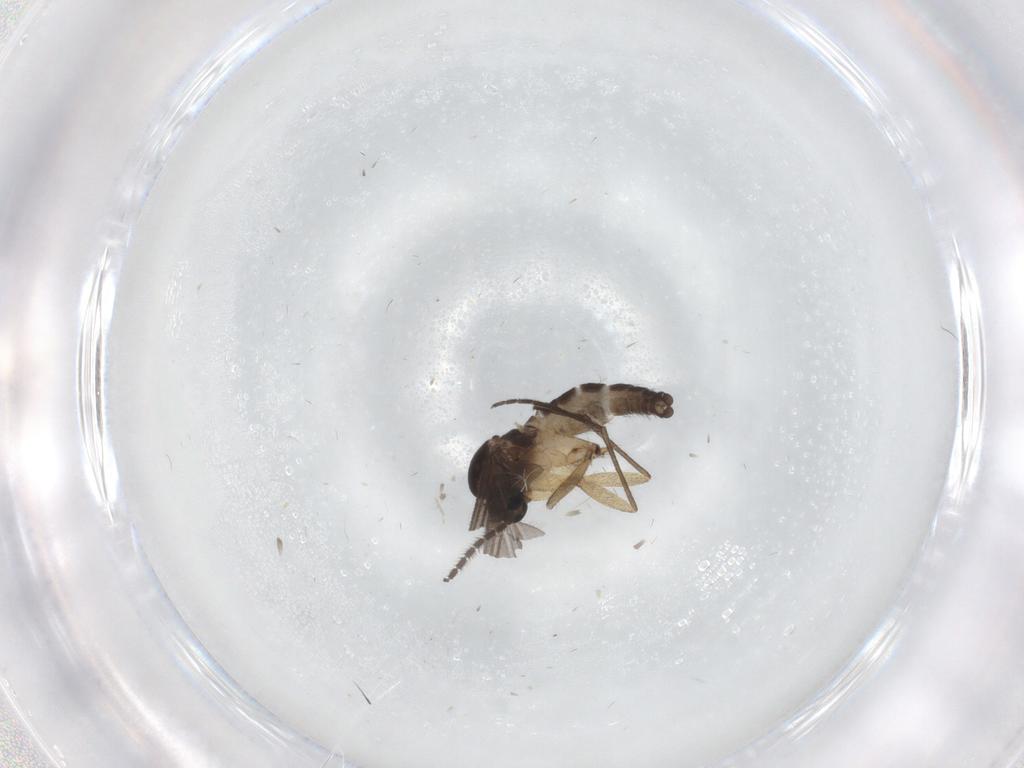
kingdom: Animalia
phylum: Arthropoda
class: Insecta
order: Diptera
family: Sciaridae
